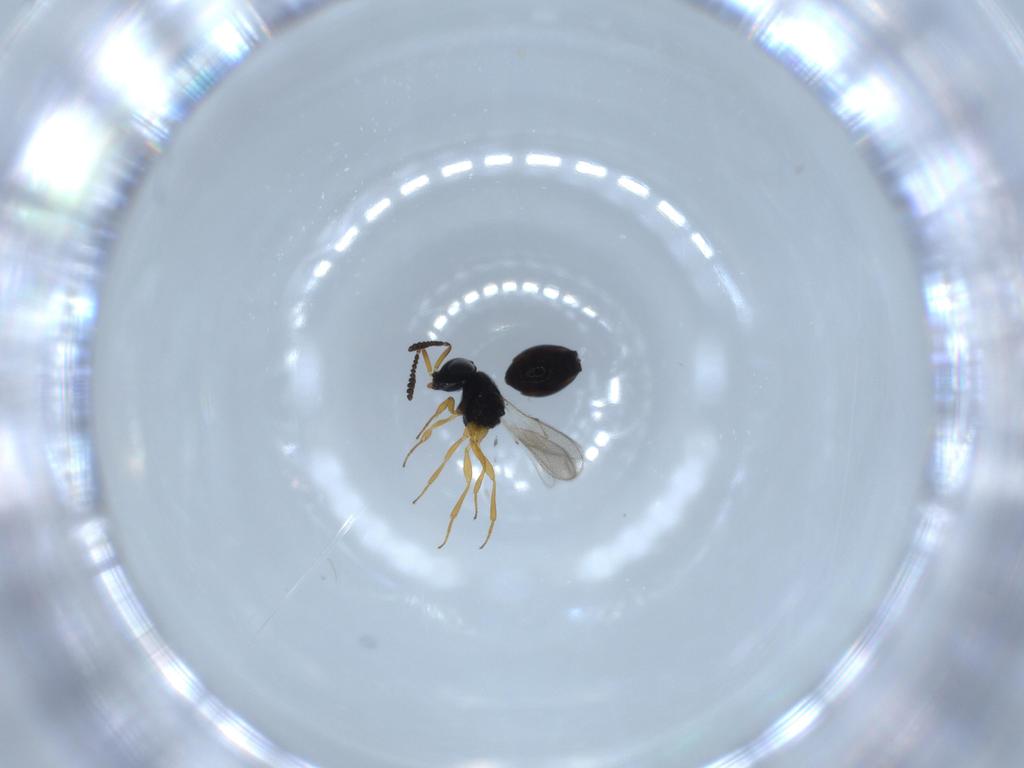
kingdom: Animalia
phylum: Arthropoda
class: Insecta
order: Hymenoptera
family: Scelionidae
